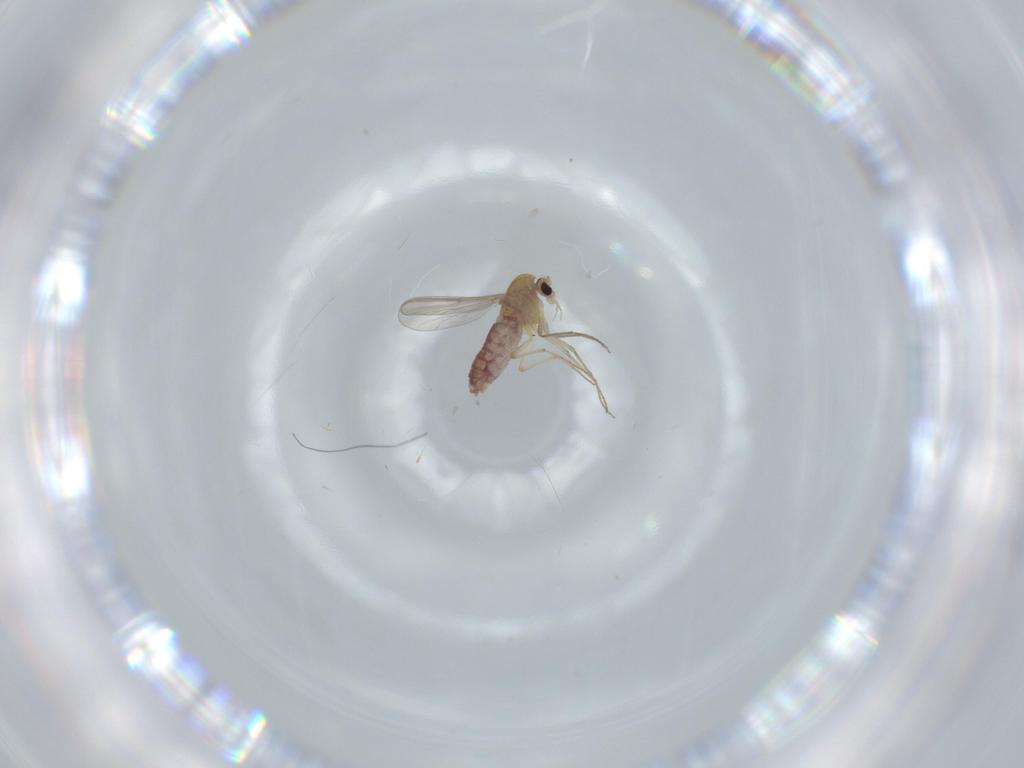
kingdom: Animalia
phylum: Arthropoda
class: Insecta
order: Diptera
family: Chironomidae
